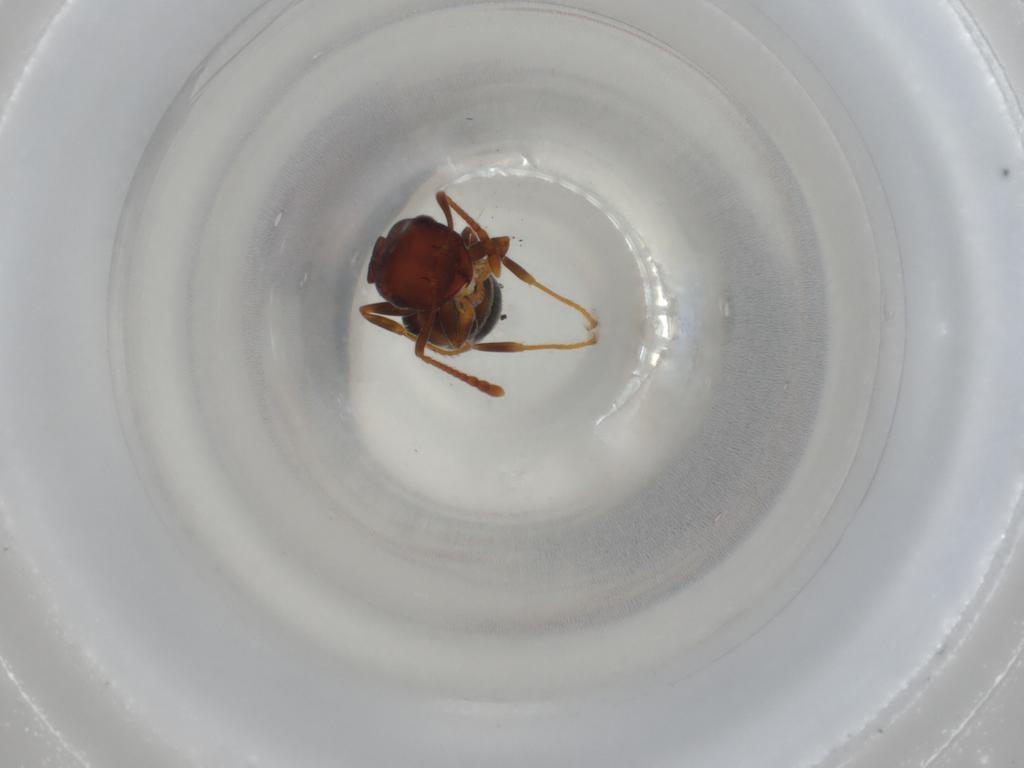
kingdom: Animalia
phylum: Arthropoda
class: Insecta
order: Hymenoptera
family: Formicidae
